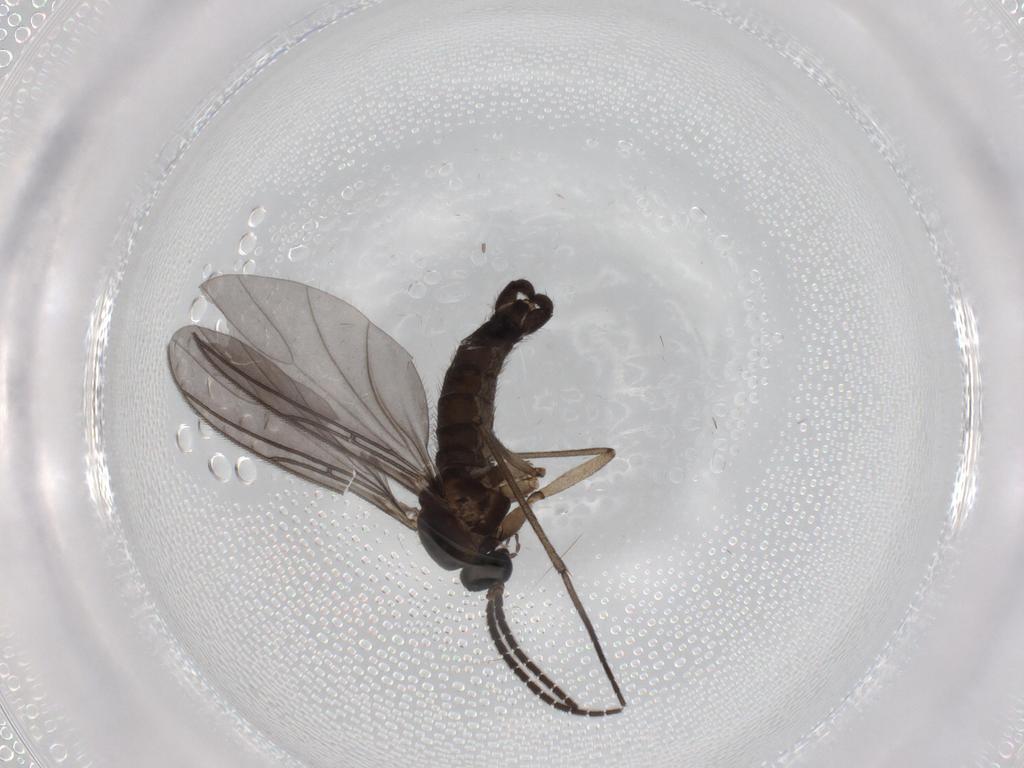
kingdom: Animalia
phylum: Arthropoda
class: Insecta
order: Diptera
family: Sciaridae
